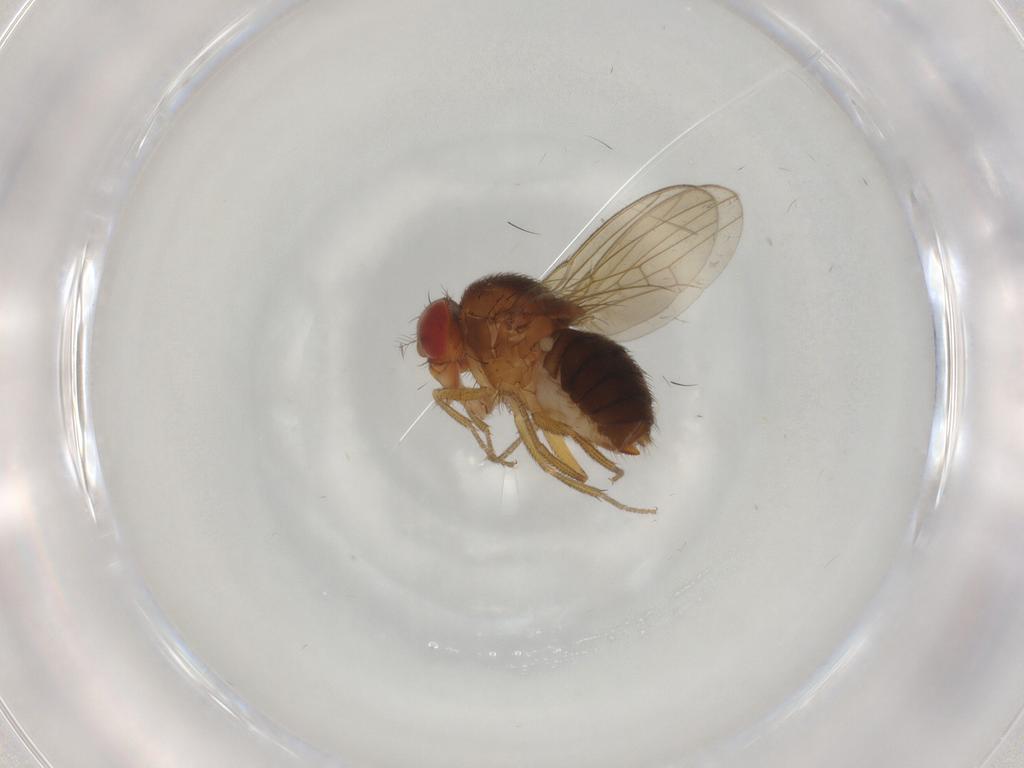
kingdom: Animalia
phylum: Arthropoda
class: Insecta
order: Diptera
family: Drosophilidae
